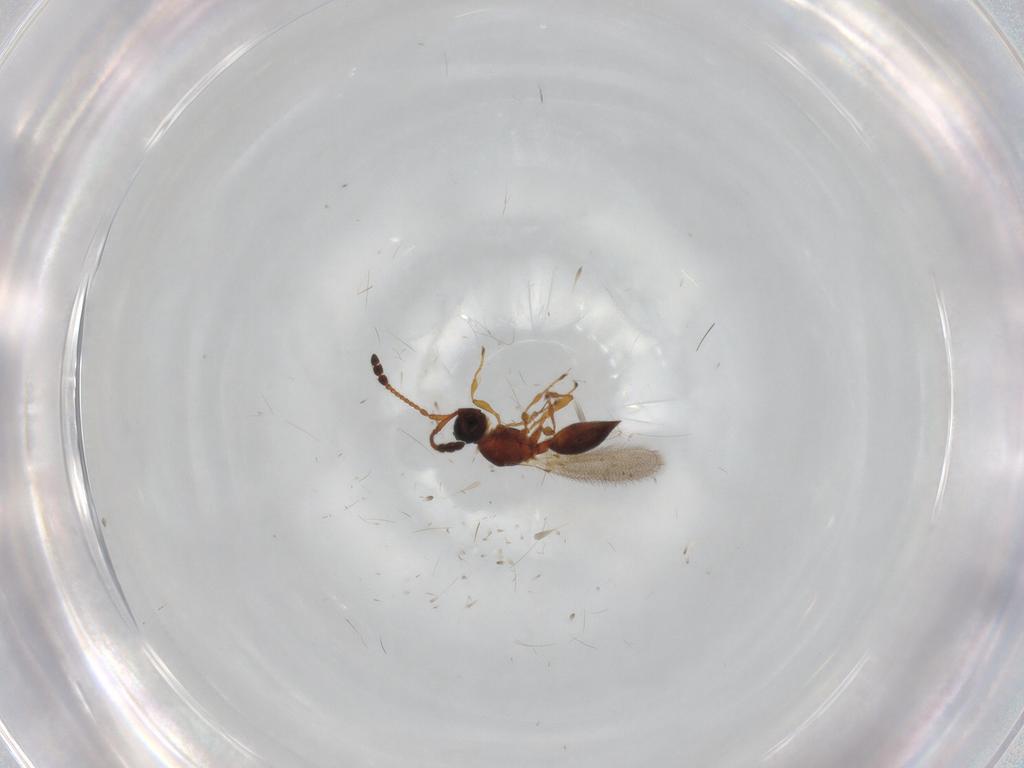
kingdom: Animalia
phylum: Arthropoda
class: Insecta
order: Hymenoptera
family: Diapriidae
